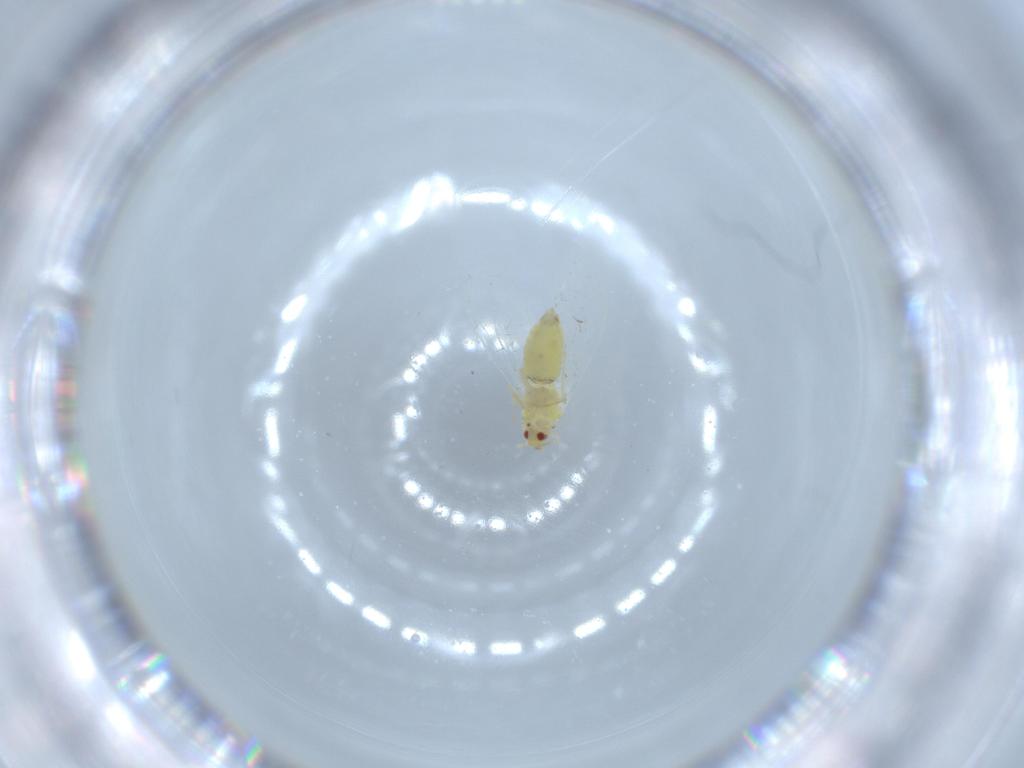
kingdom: Animalia
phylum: Arthropoda
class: Insecta
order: Hemiptera
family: Aleyrodidae
